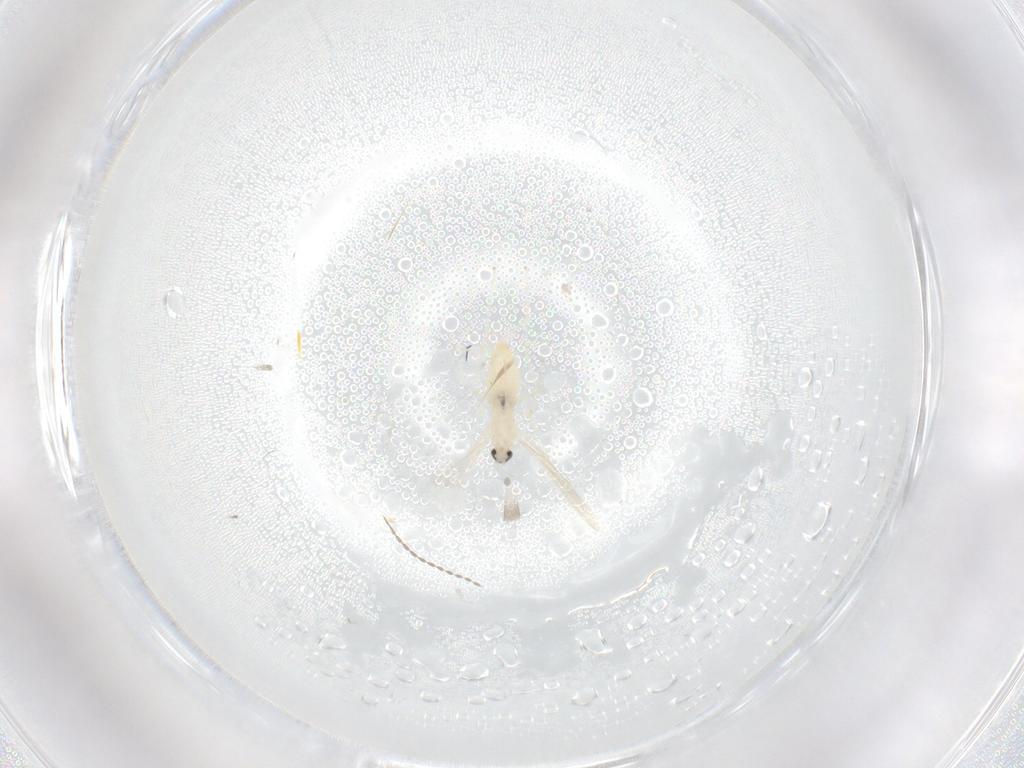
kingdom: Animalia
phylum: Arthropoda
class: Insecta
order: Diptera
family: Cecidomyiidae
